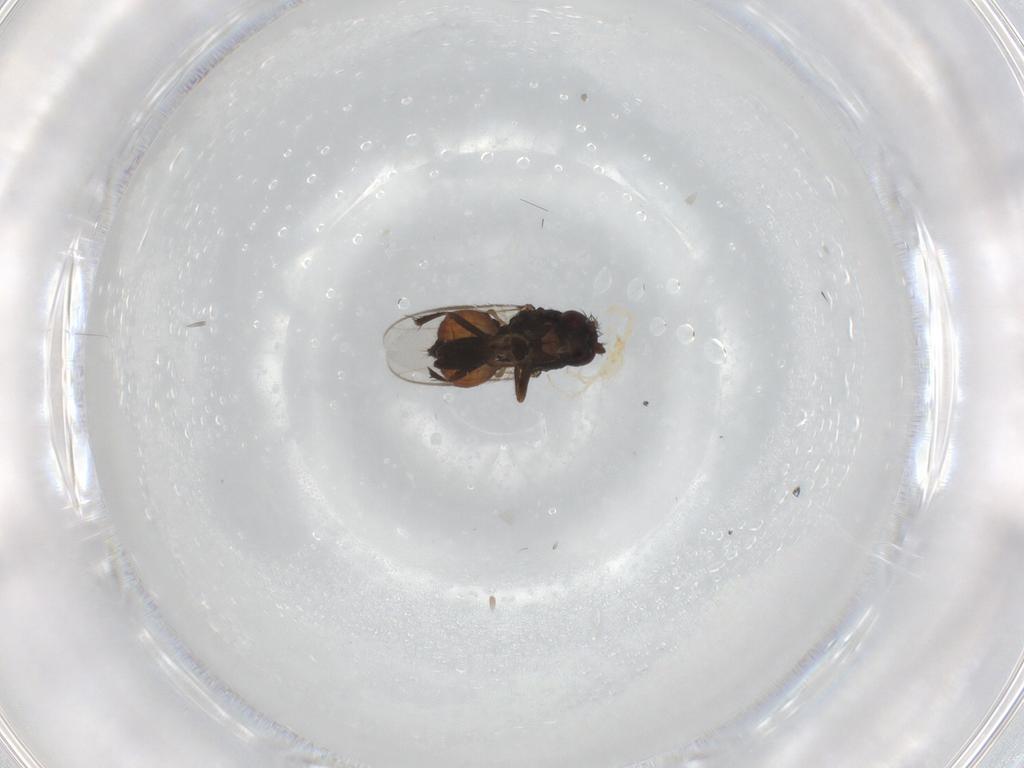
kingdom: Animalia
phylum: Arthropoda
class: Insecta
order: Diptera
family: Sphaeroceridae
